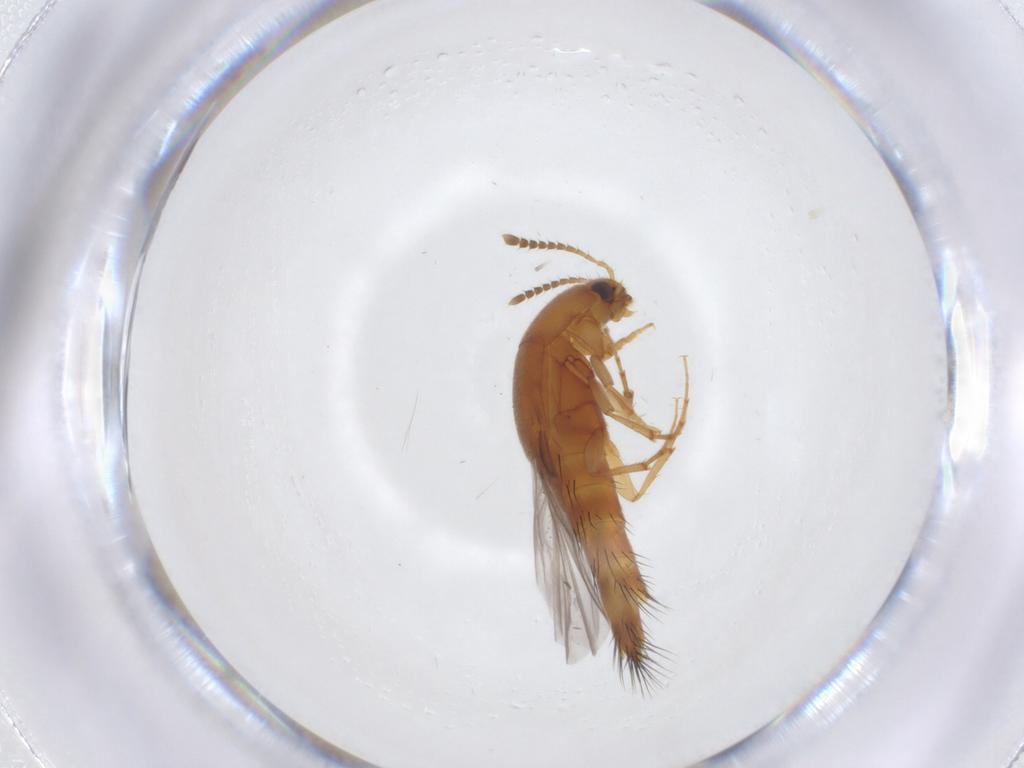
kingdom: Animalia
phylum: Arthropoda
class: Insecta
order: Coleoptera
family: Staphylinidae
